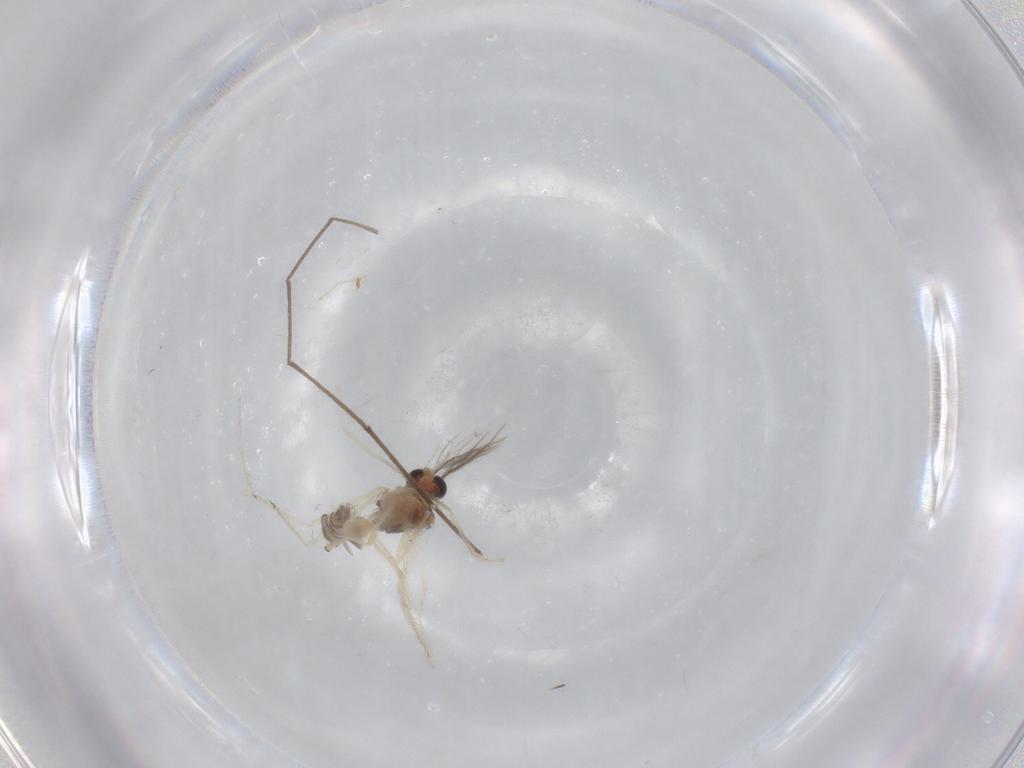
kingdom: Animalia
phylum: Arthropoda
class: Insecta
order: Diptera
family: Chironomidae
